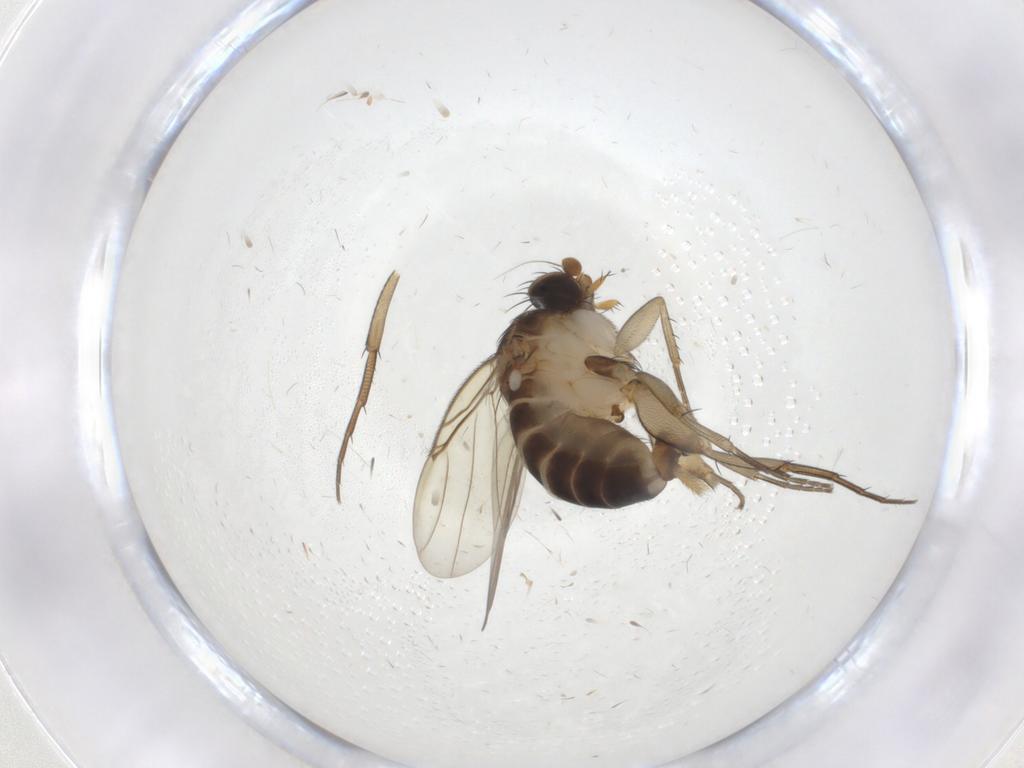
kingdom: Animalia
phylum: Arthropoda
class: Insecta
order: Diptera
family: Phoridae
